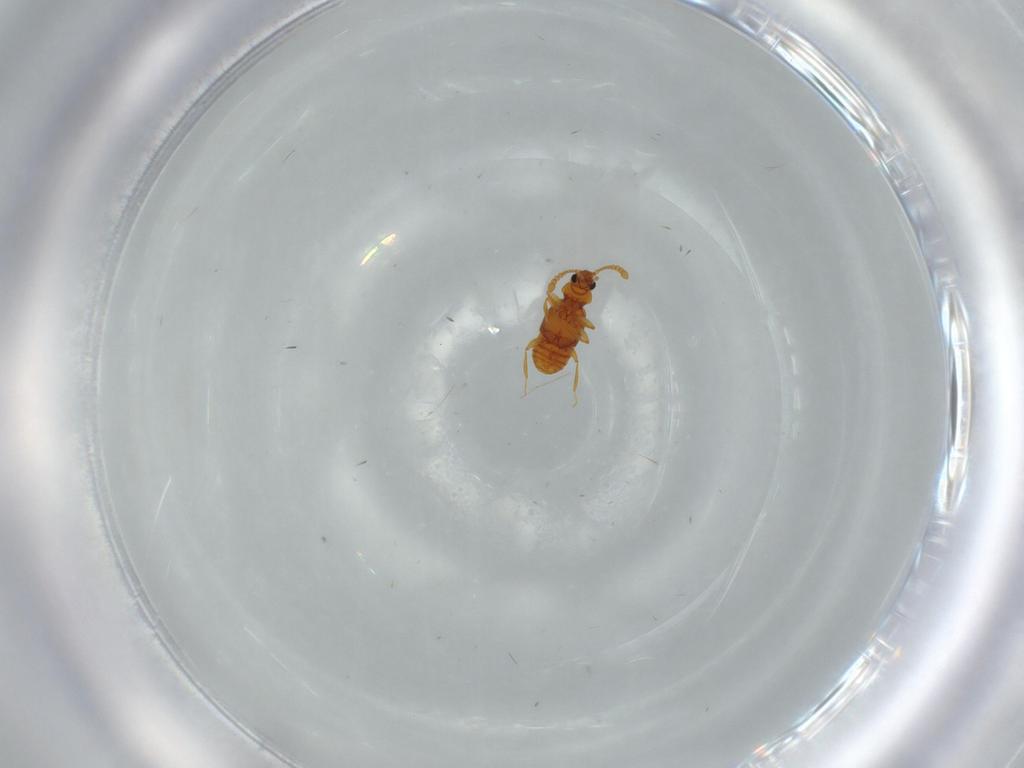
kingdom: Animalia
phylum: Arthropoda
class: Insecta
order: Coleoptera
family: Staphylinidae
